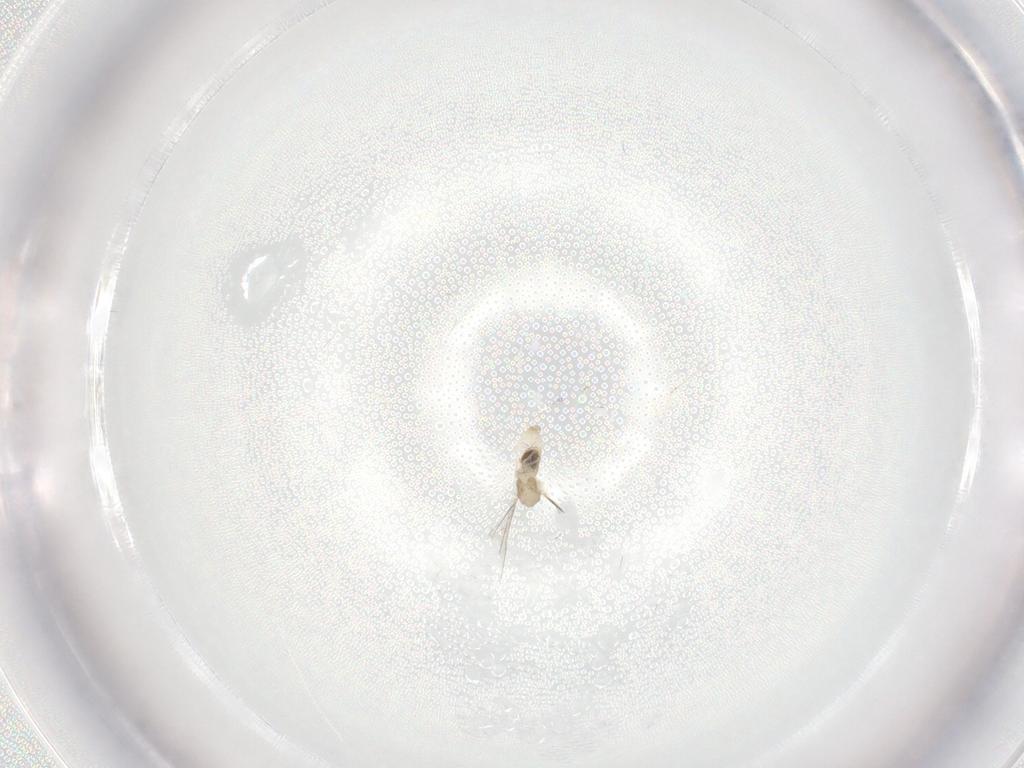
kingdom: Animalia
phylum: Arthropoda
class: Insecta
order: Diptera
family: Cecidomyiidae
